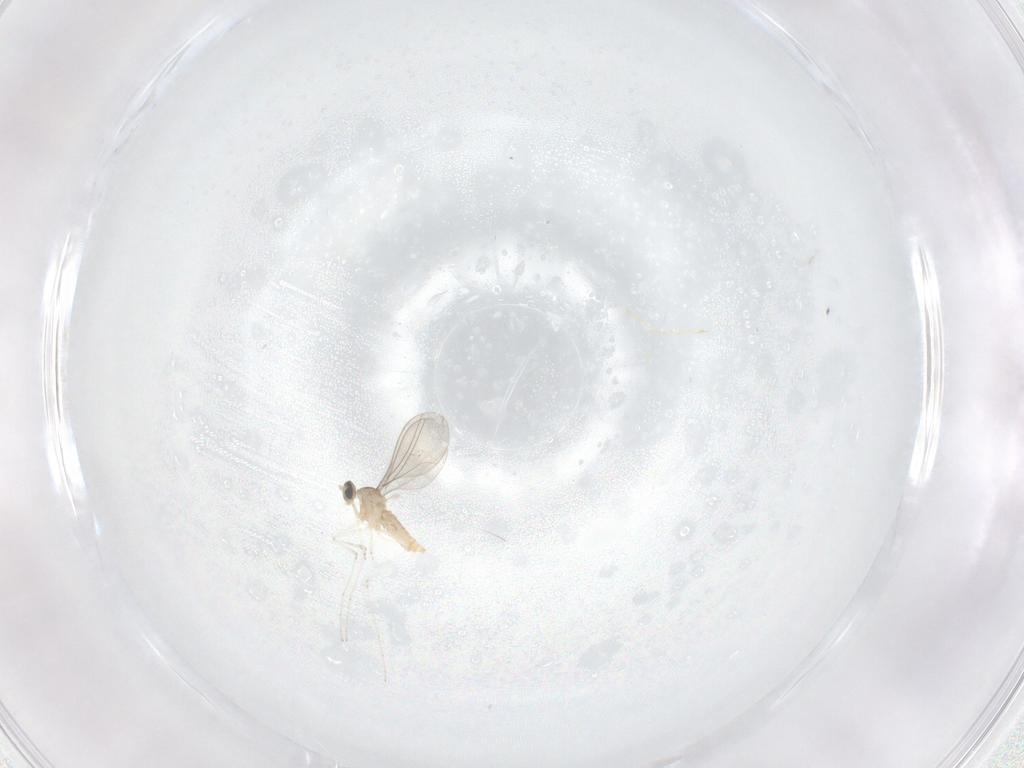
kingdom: Animalia
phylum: Arthropoda
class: Insecta
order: Diptera
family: Cecidomyiidae
